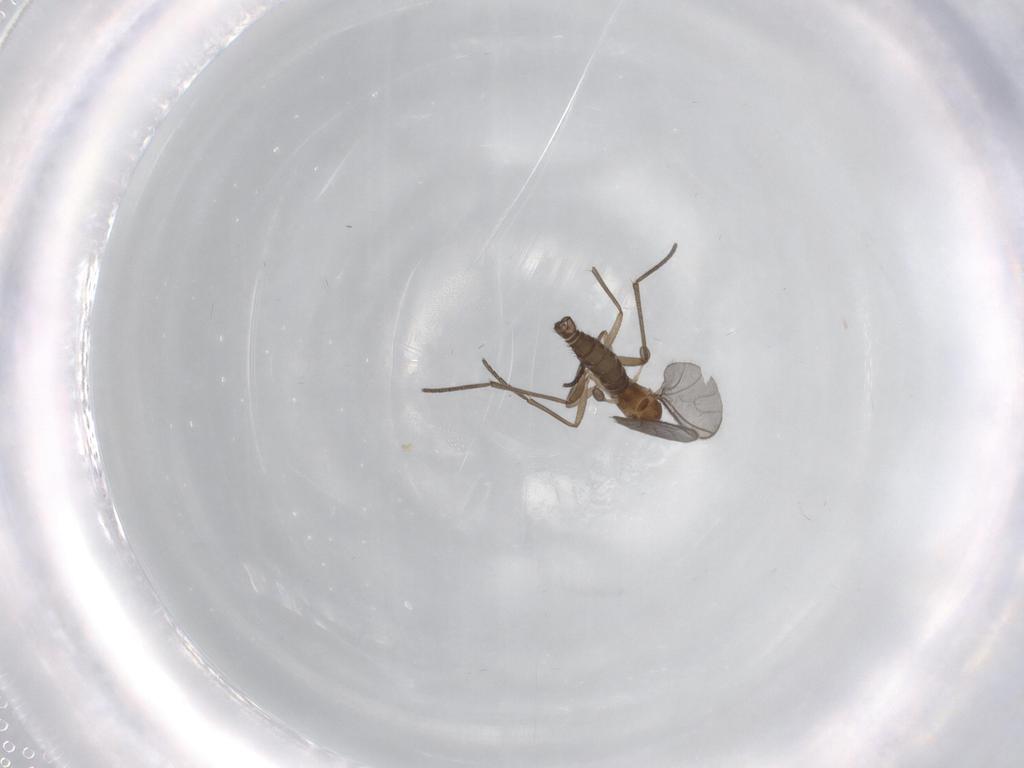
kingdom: Animalia
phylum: Arthropoda
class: Insecta
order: Diptera
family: Sciaridae
